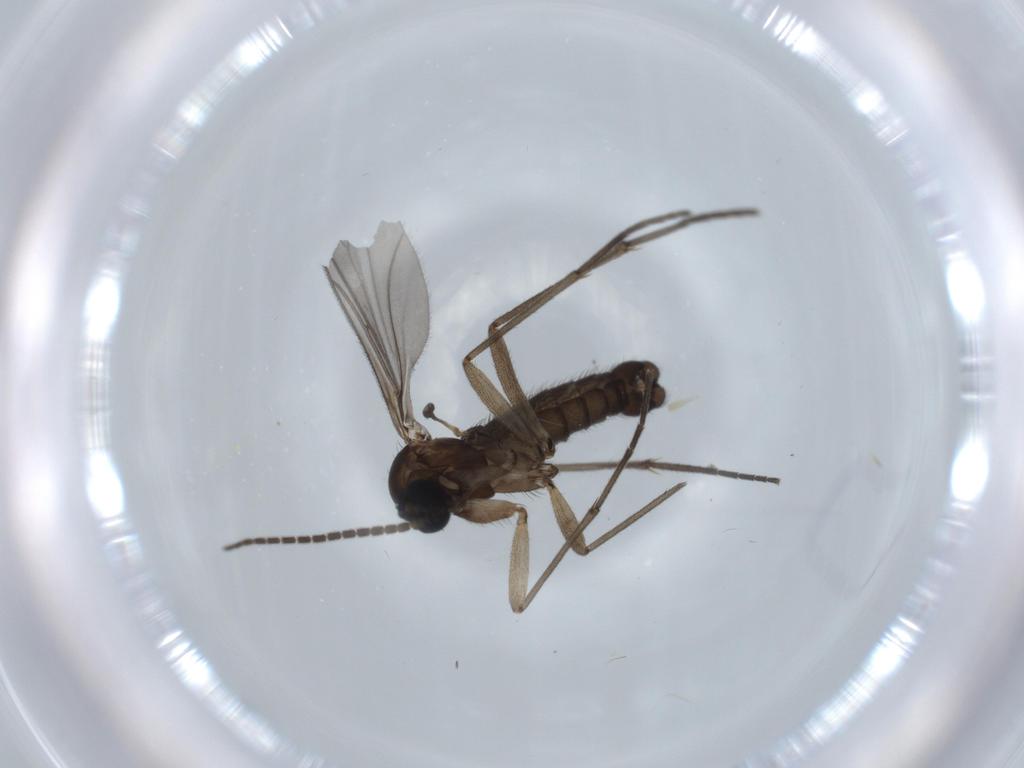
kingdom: Animalia
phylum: Arthropoda
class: Insecta
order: Diptera
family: Sciaridae
